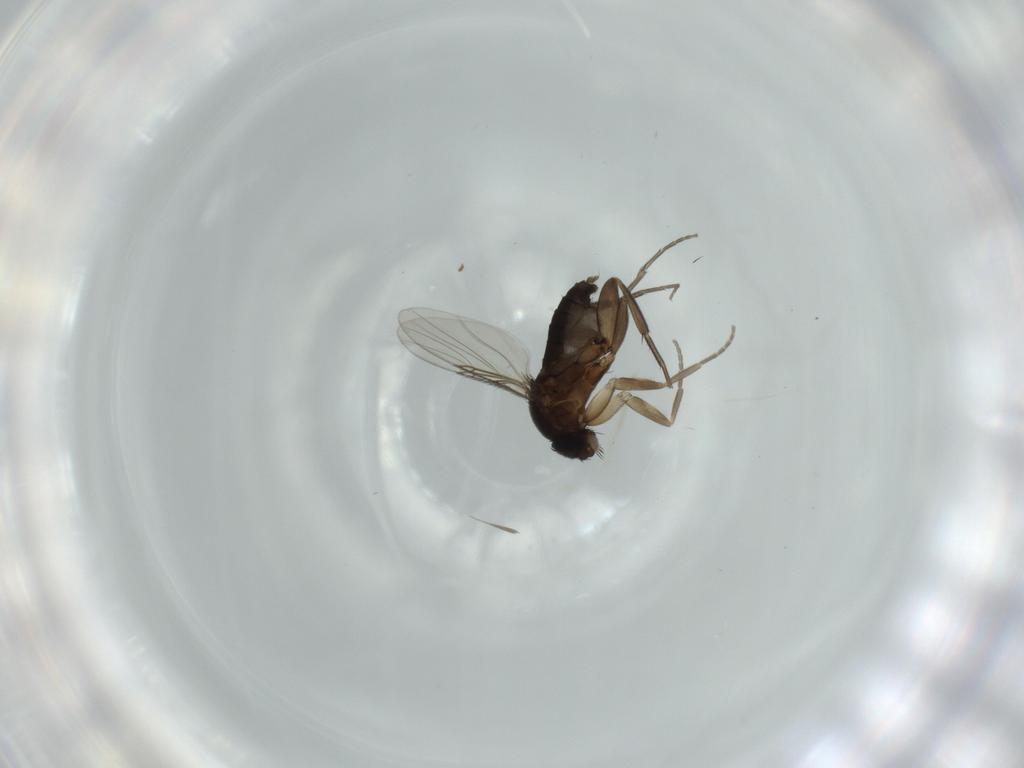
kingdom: Animalia
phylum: Arthropoda
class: Insecta
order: Diptera
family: Phoridae
